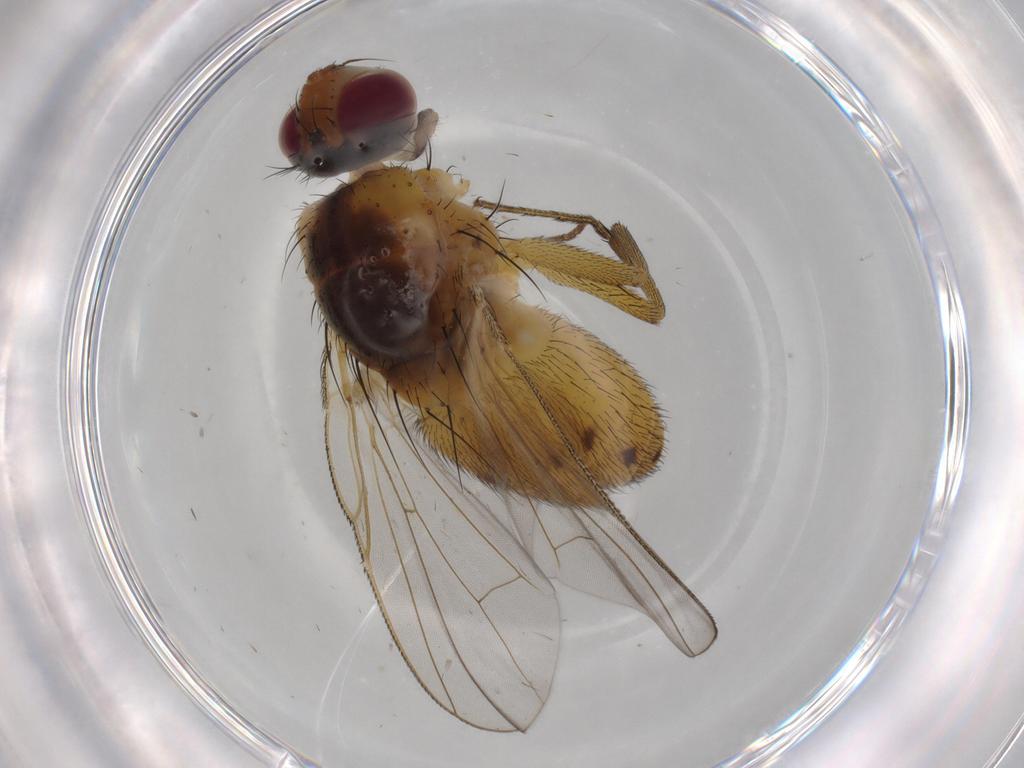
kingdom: Animalia
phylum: Arthropoda
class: Insecta
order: Diptera
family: Muscidae
